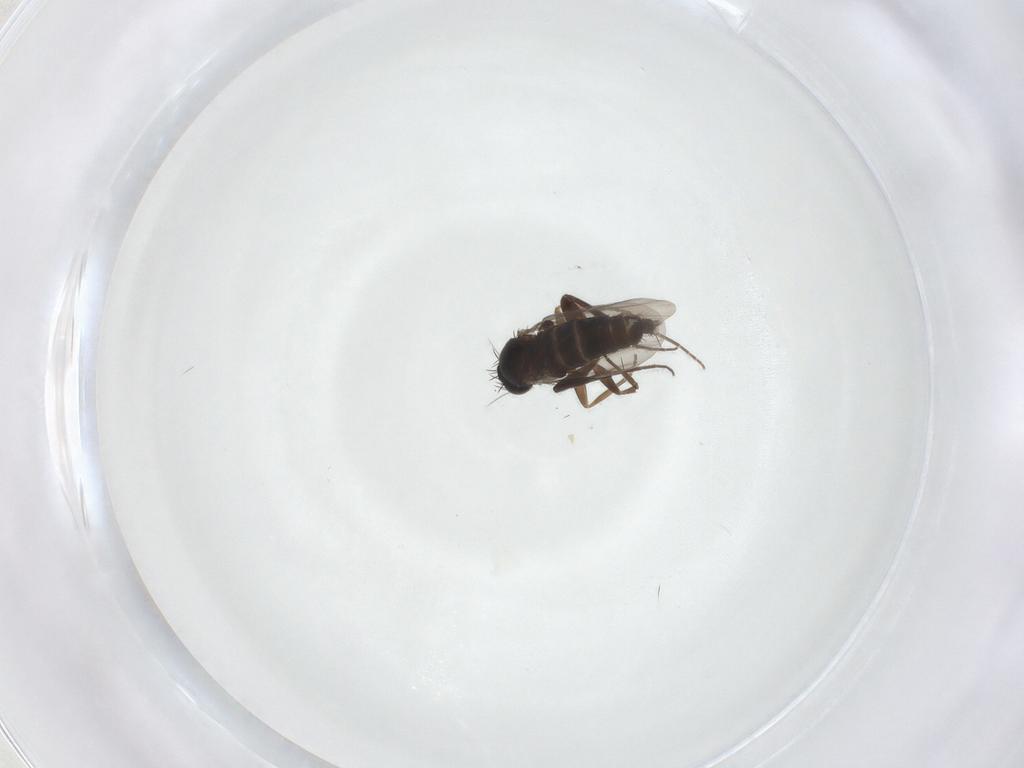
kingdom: Animalia
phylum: Arthropoda
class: Insecta
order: Diptera
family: Phoridae
